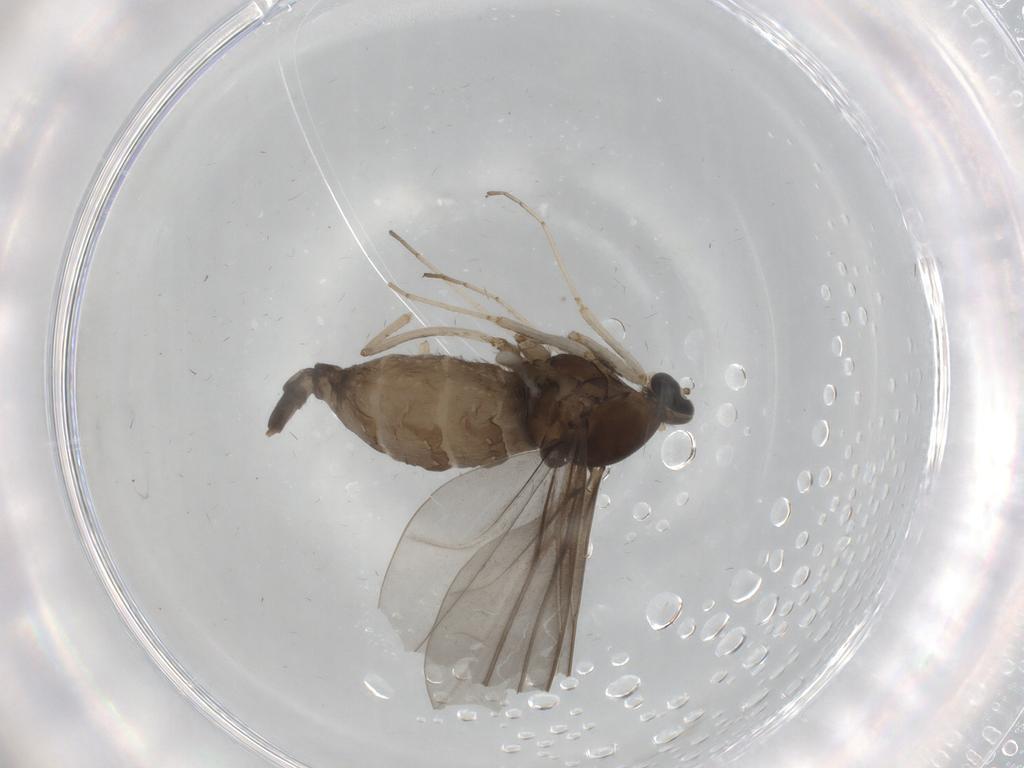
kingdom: Animalia
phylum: Arthropoda
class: Insecta
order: Diptera
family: Cecidomyiidae
